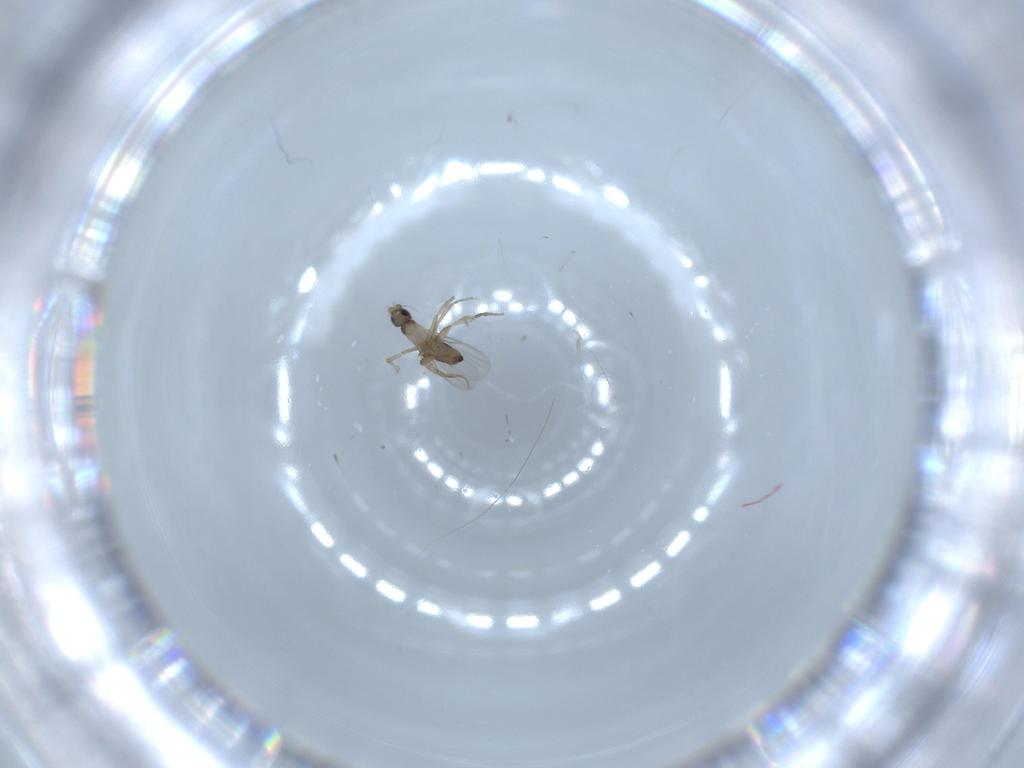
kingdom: Animalia
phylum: Arthropoda
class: Insecta
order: Diptera
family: Phoridae
